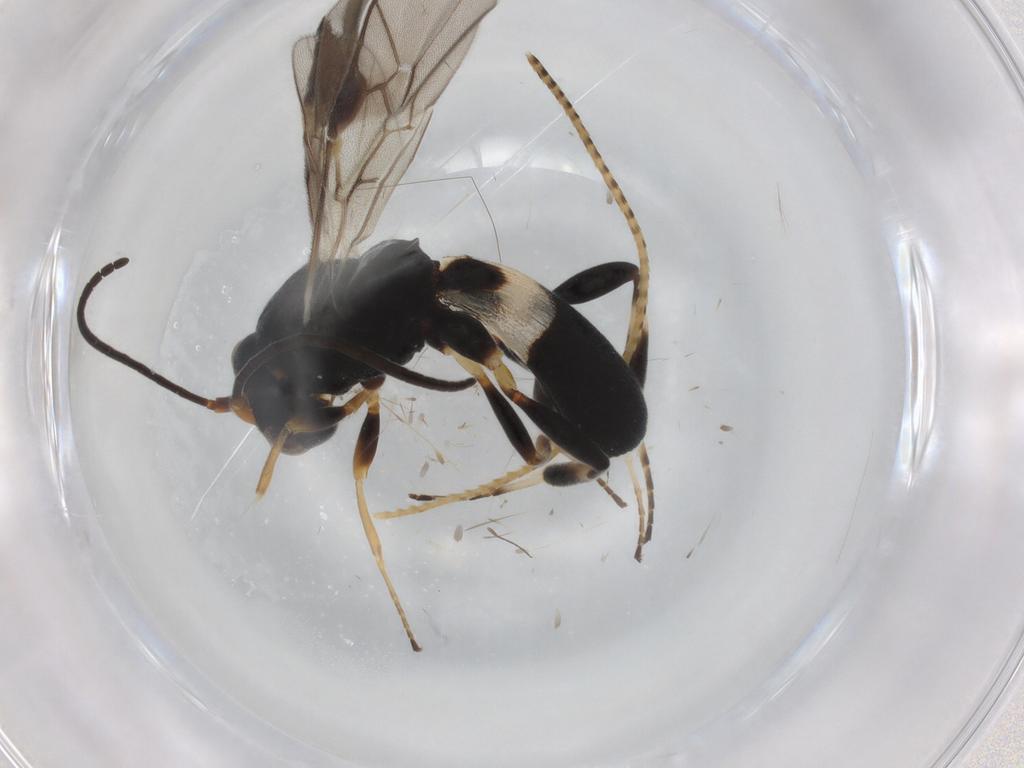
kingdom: Animalia
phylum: Arthropoda
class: Insecta
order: Hymenoptera
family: Braconidae
